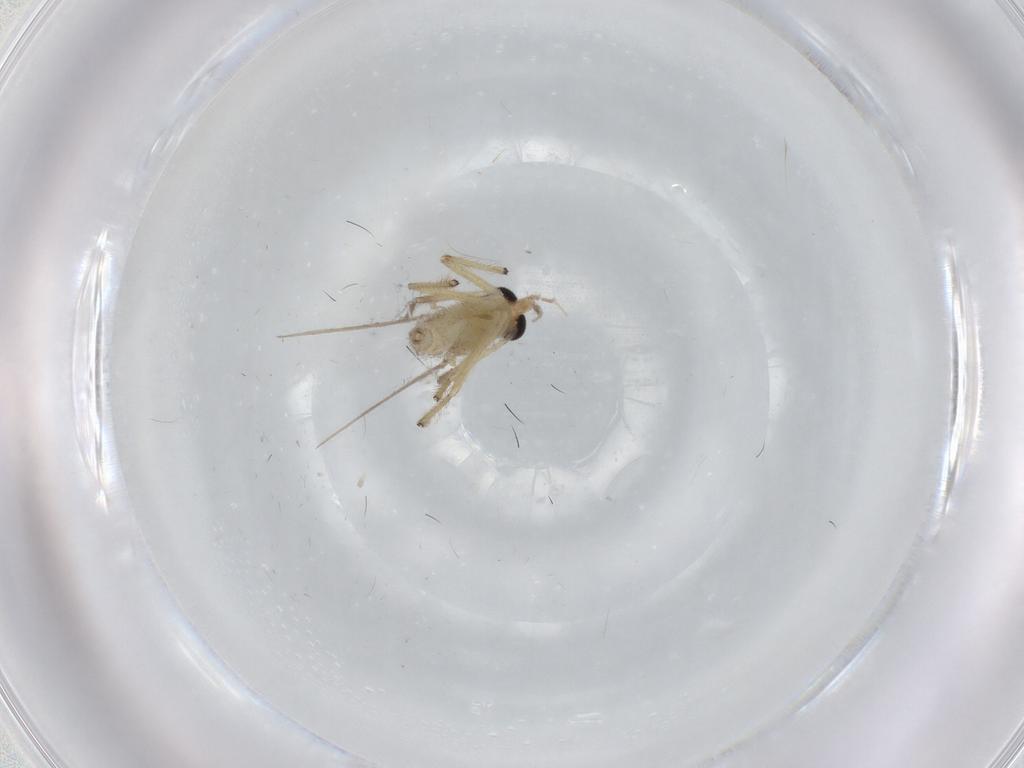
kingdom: Animalia
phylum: Arthropoda
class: Insecta
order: Diptera
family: Chironomidae
